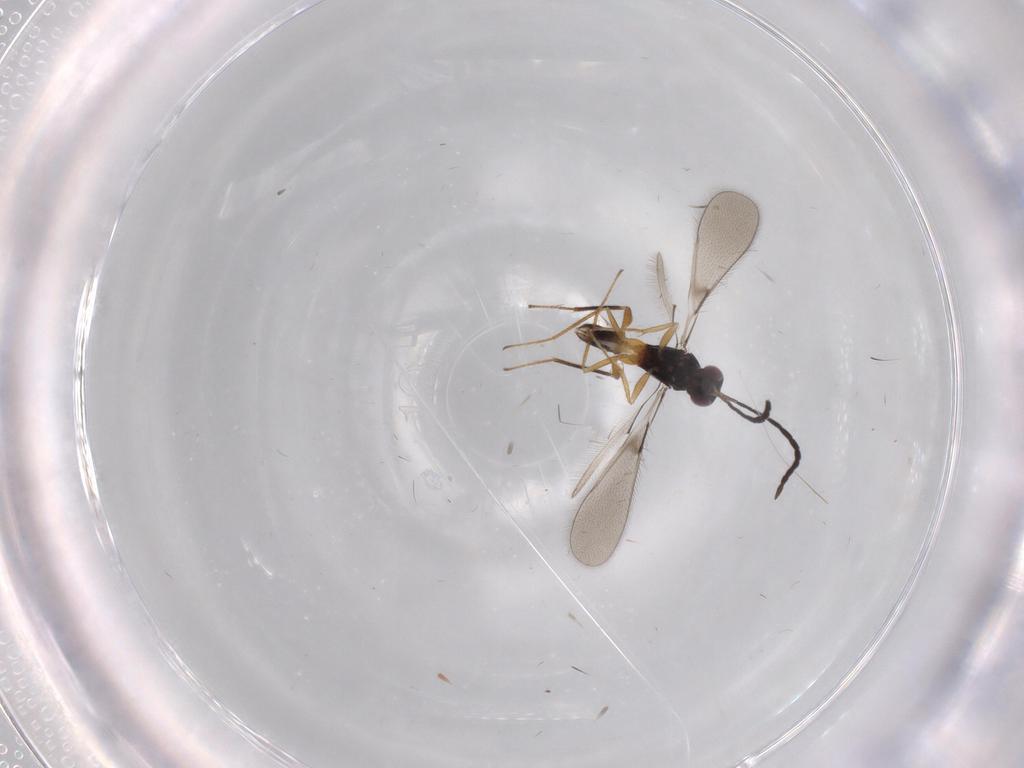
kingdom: Animalia
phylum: Arthropoda
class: Insecta
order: Hymenoptera
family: Mymaridae
